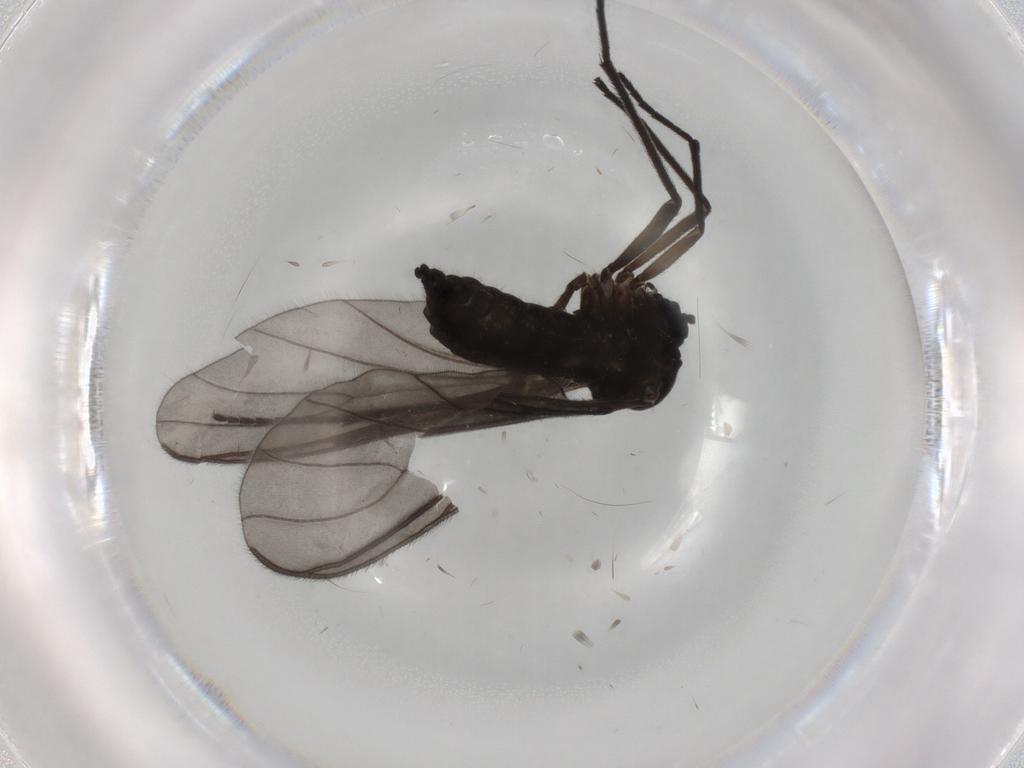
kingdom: Animalia
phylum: Arthropoda
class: Insecta
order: Diptera
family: Sciaridae
